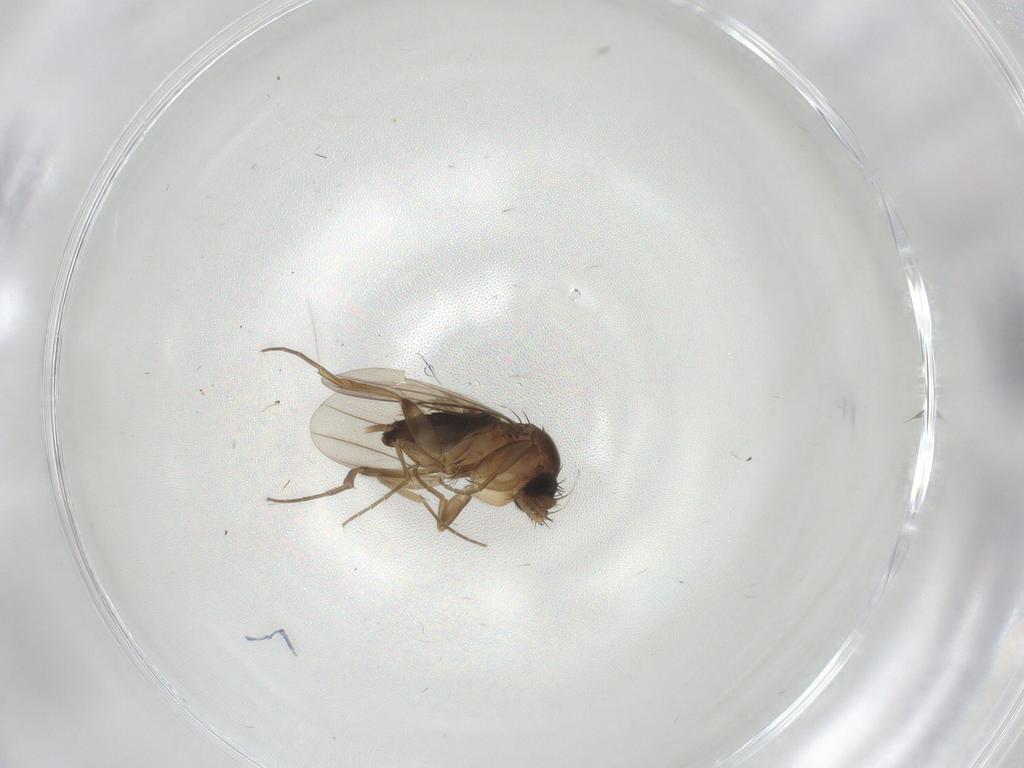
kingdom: Animalia
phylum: Arthropoda
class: Insecta
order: Diptera
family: Phoridae
